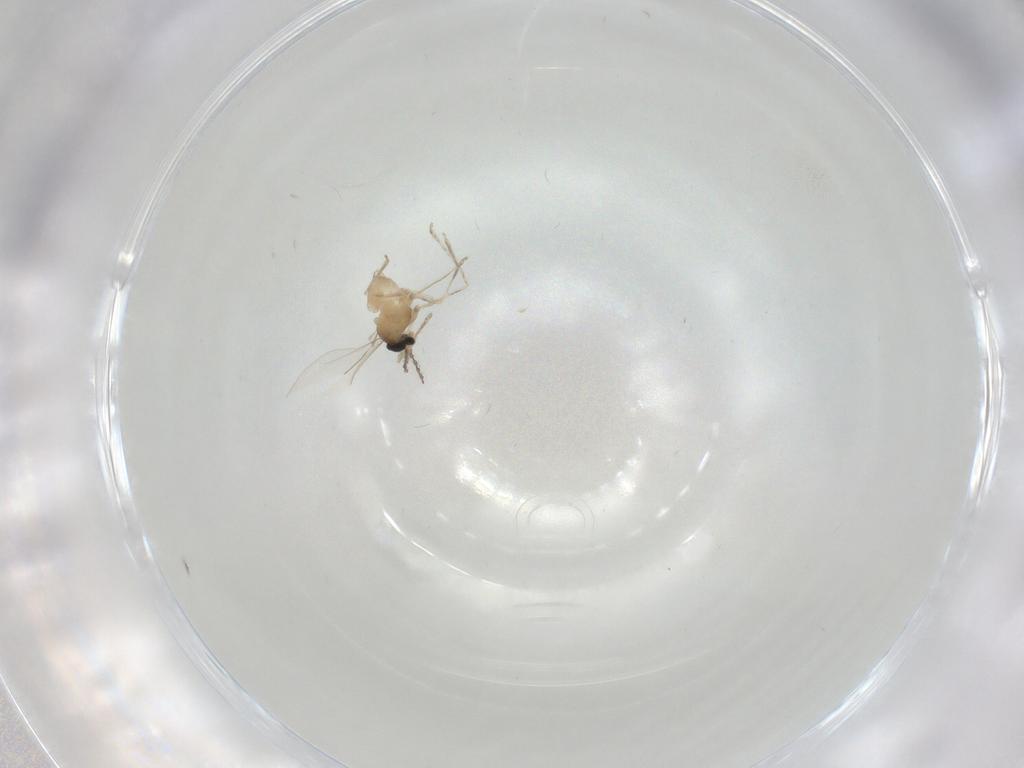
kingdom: Animalia
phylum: Arthropoda
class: Insecta
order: Diptera
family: Cecidomyiidae
